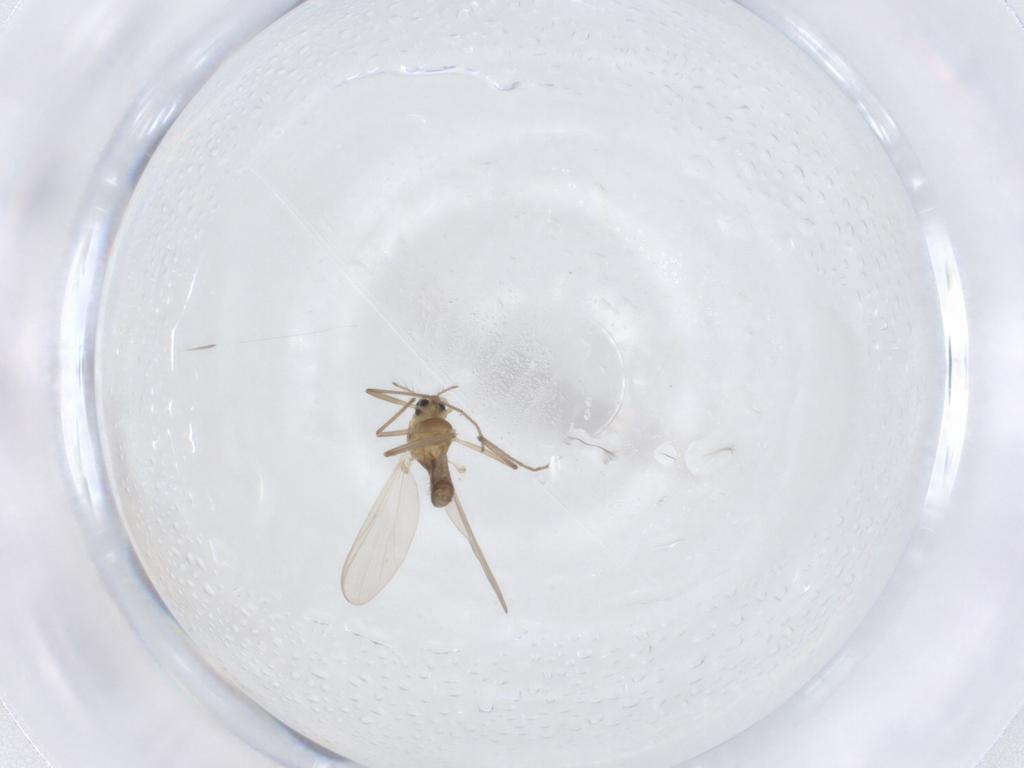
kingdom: Animalia
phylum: Arthropoda
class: Insecta
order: Diptera
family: Chironomidae
